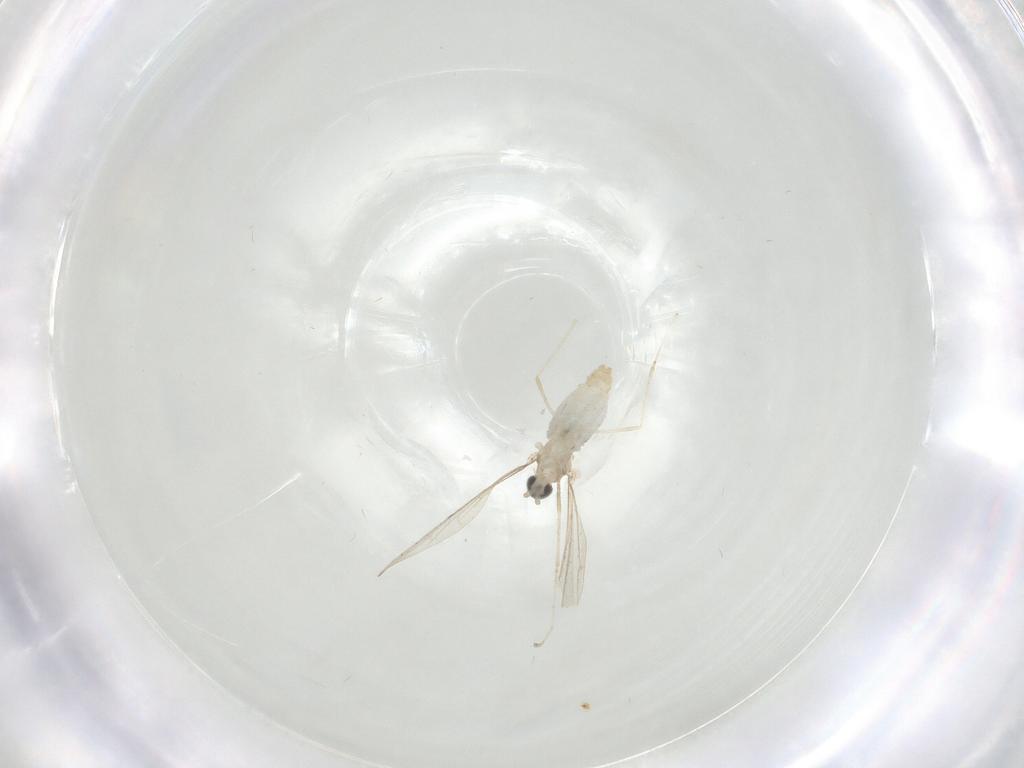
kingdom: Animalia
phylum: Arthropoda
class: Insecta
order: Diptera
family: Cecidomyiidae
